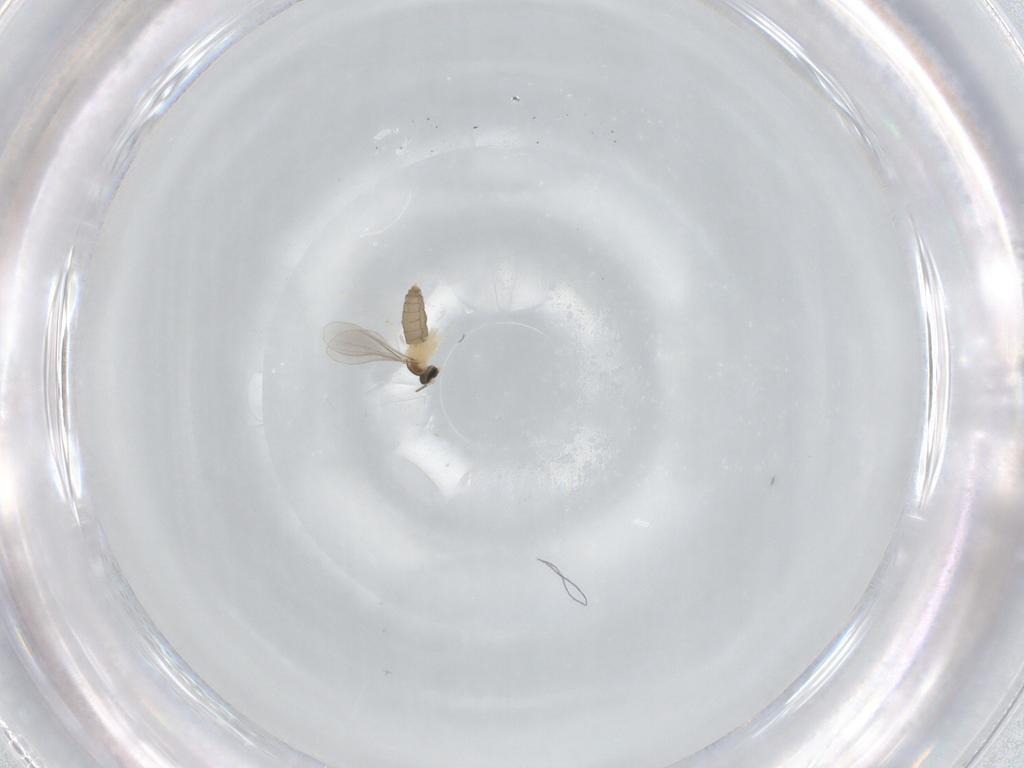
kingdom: Animalia
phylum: Arthropoda
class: Insecta
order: Diptera
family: Cecidomyiidae
